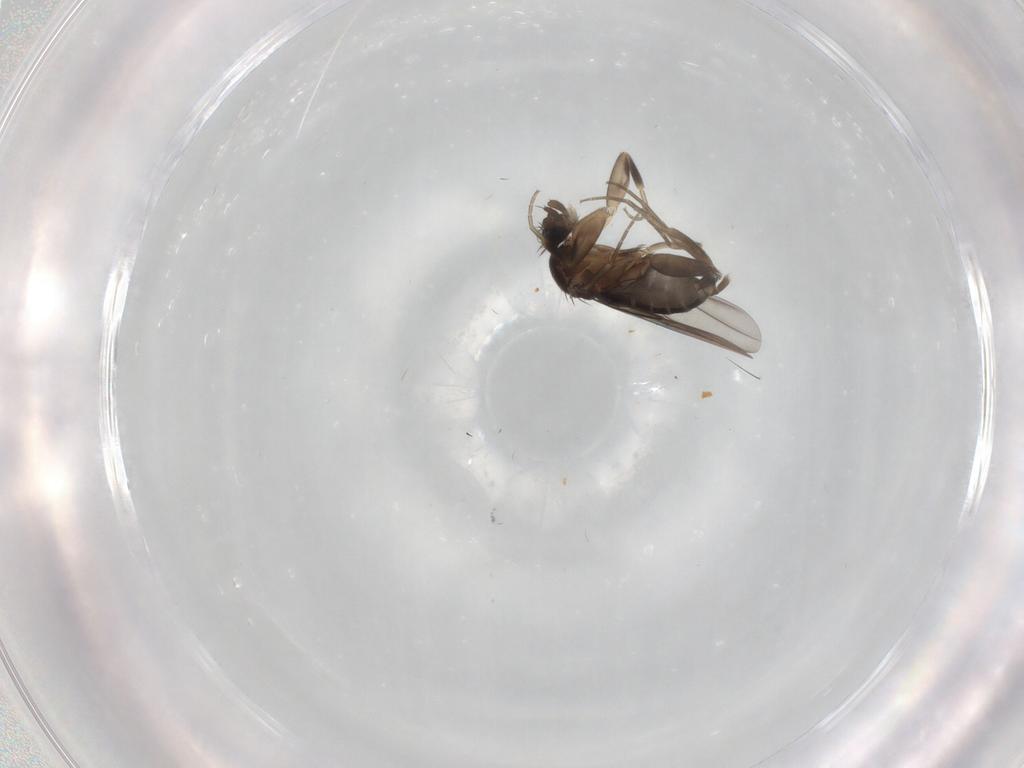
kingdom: Animalia
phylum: Arthropoda
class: Insecta
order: Diptera
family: Phoridae
